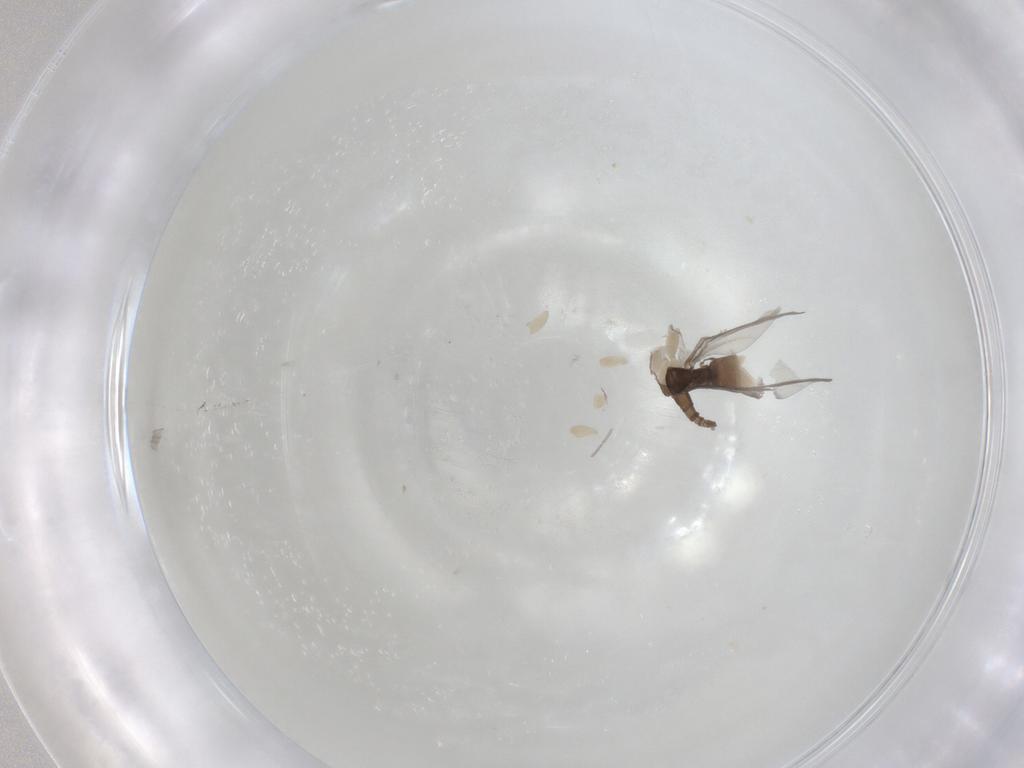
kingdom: Animalia
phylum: Arthropoda
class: Insecta
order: Diptera
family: Sciaridae
